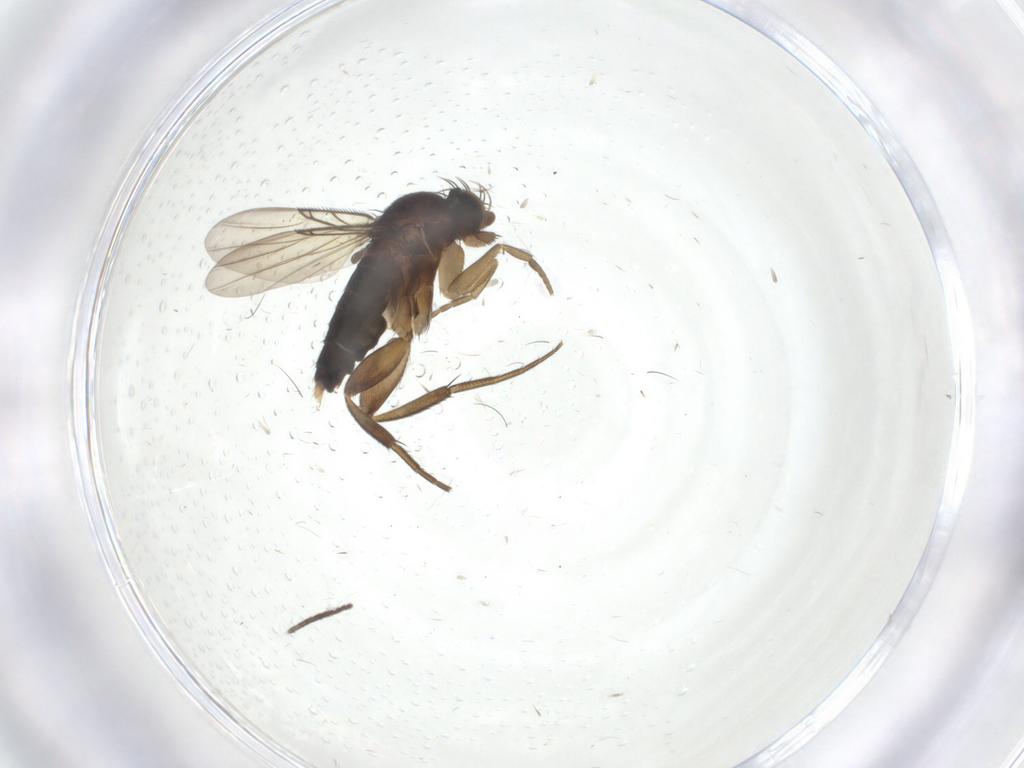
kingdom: Animalia
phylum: Arthropoda
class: Insecta
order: Diptera
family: Phoridae
